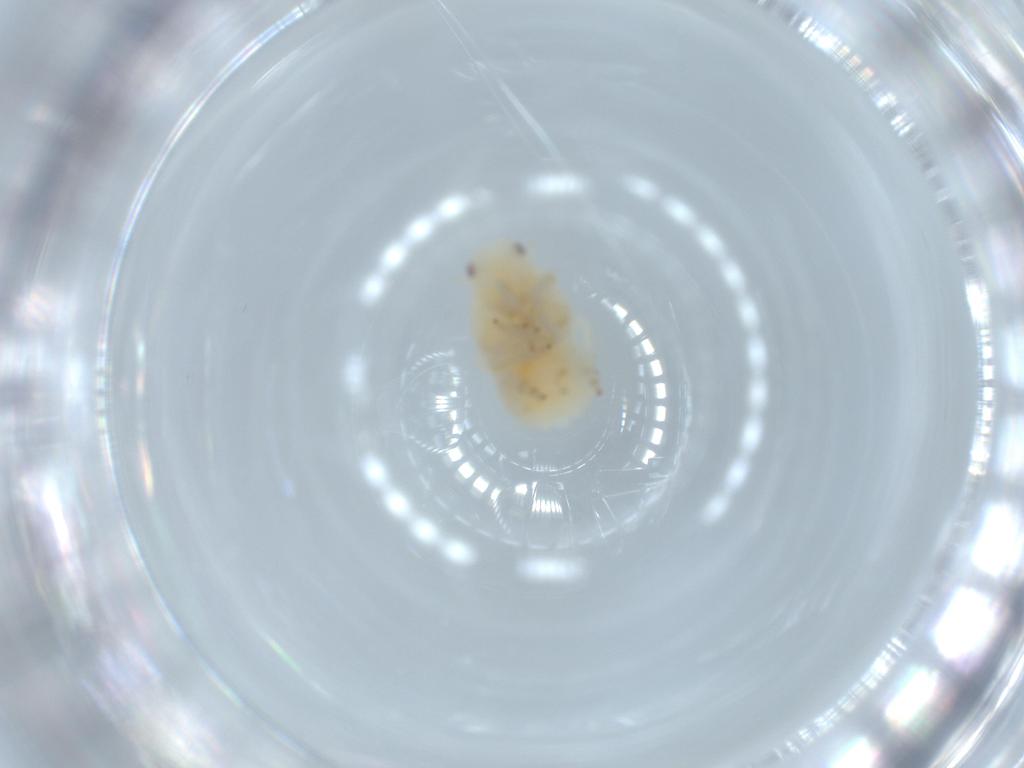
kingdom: Animalia
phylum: Arthropoda
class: Insecta
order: Hemiptera
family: Flatidae
